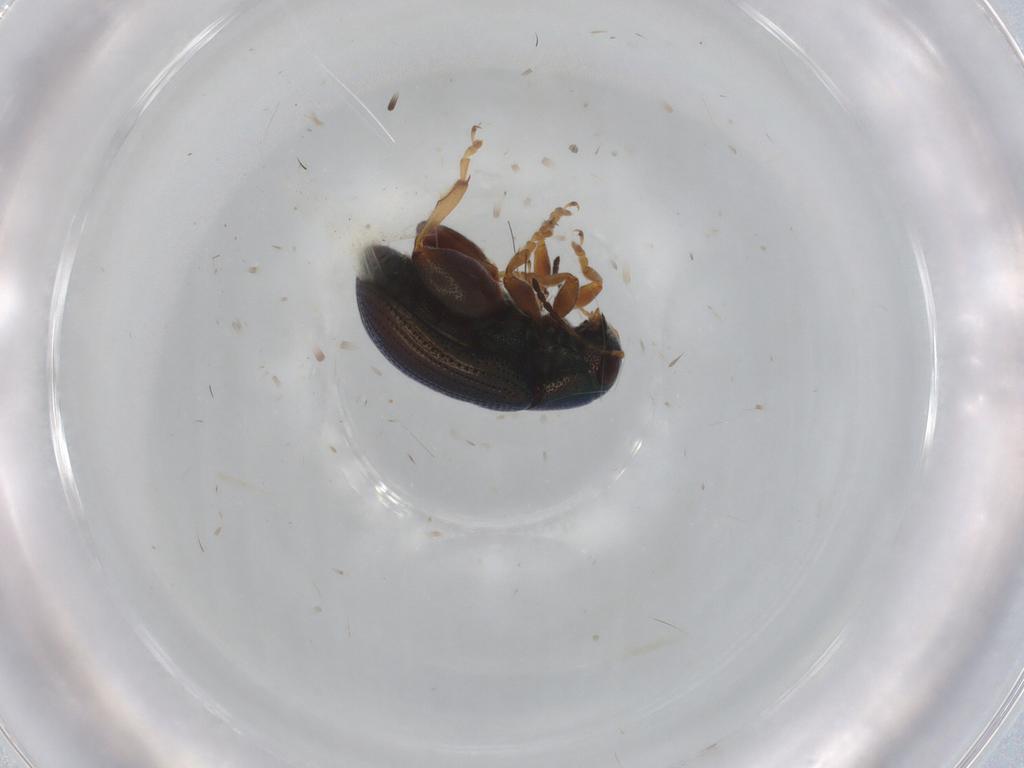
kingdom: Animalia
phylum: Arthropoda
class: Insecta
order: Coleoptera
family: Chrysomelidae
